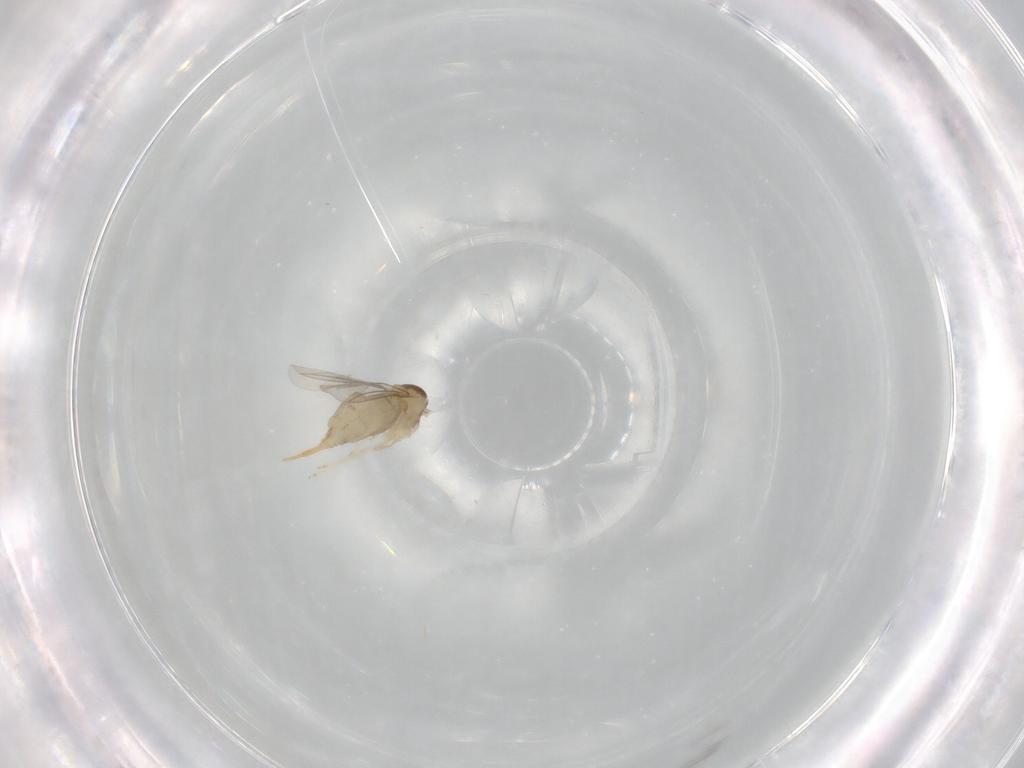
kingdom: Animalia
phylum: Arthropoda
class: Insecta
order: Diptera
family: Cecidomyiidae
